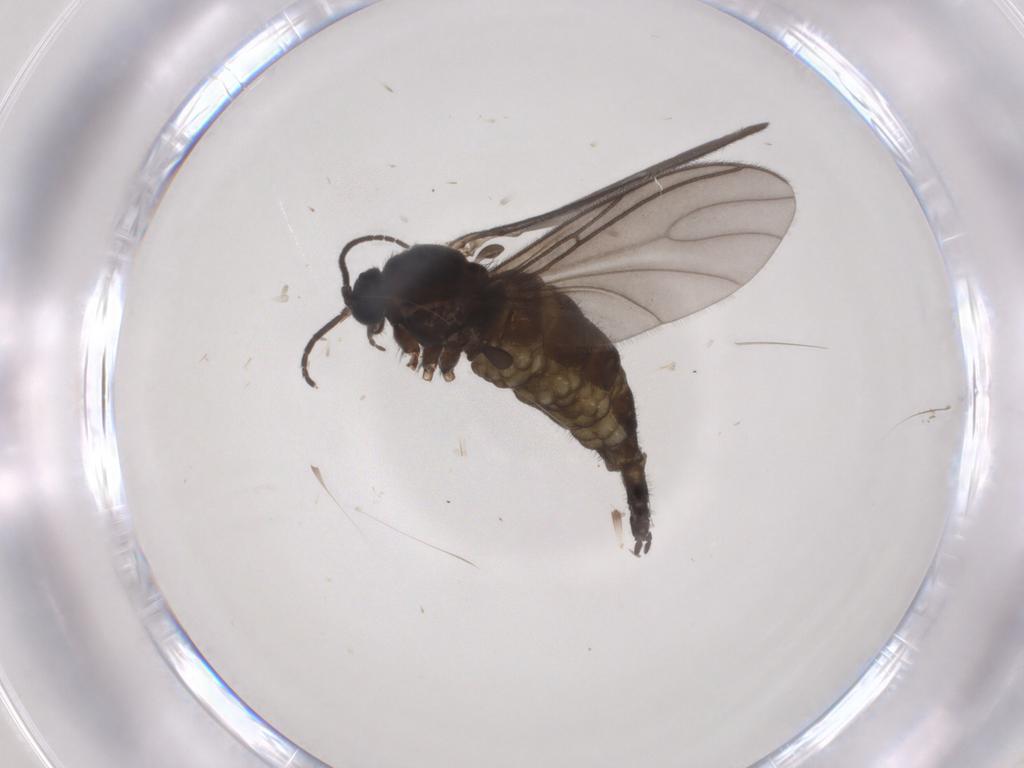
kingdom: Animalia
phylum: Arthropoda
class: Insecta
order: Diptera
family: Sciaridae
